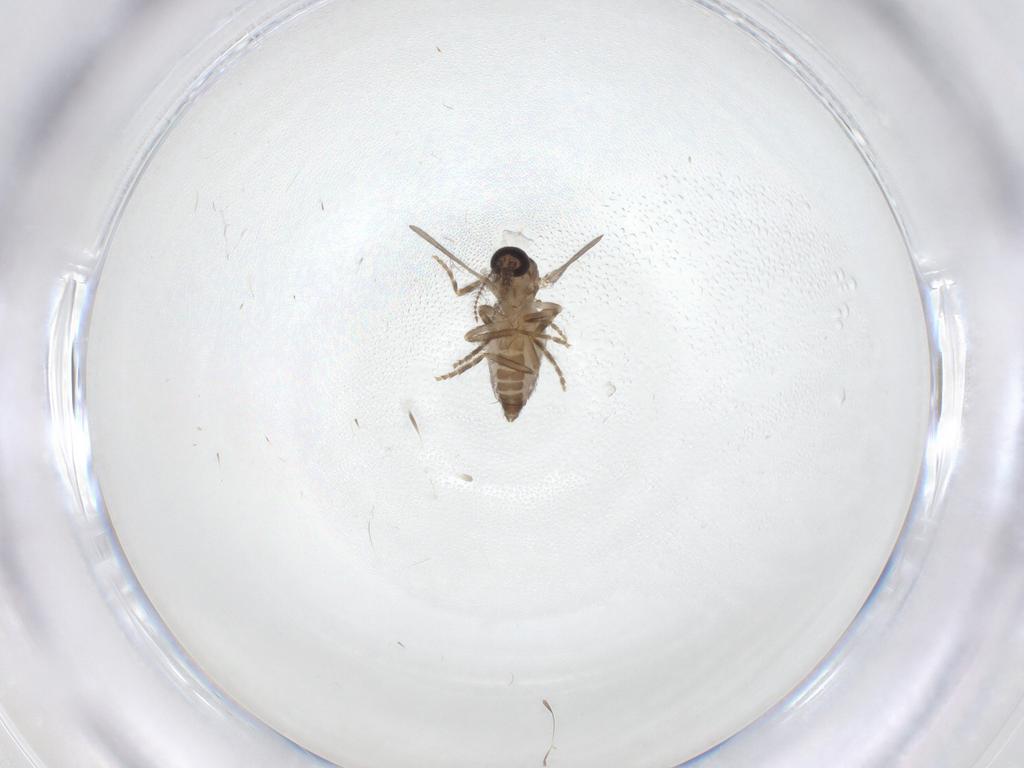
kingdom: Animalia
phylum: Arthropoda
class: Insecta
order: Diptera
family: Ceratopogonidae
